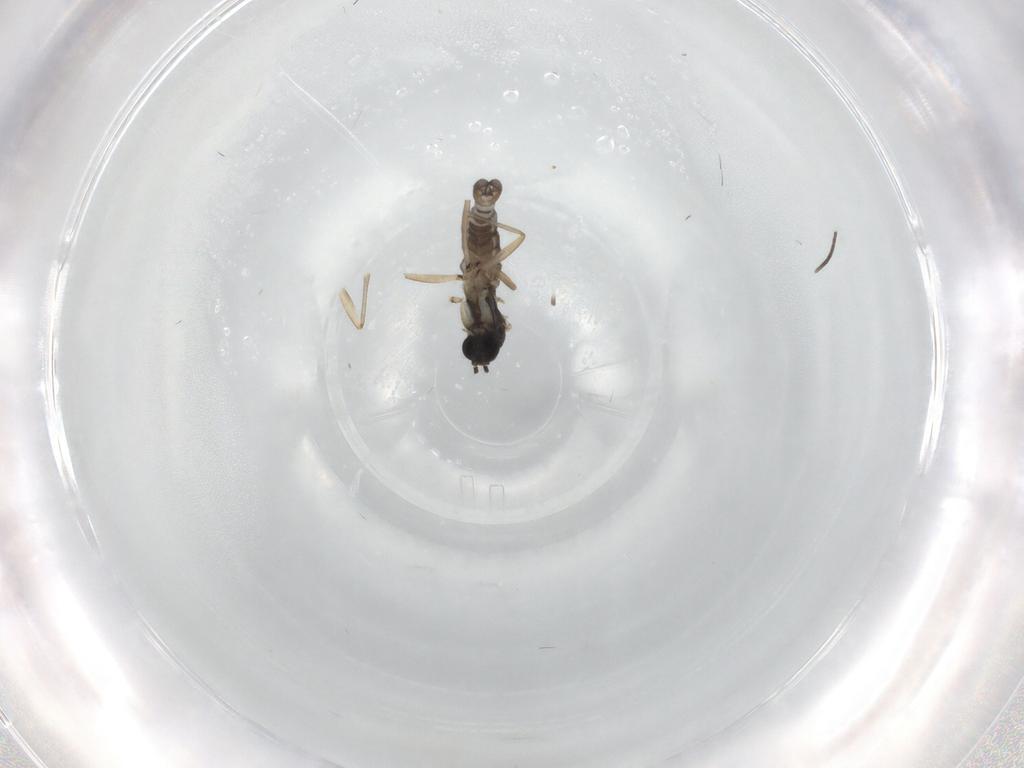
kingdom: Animalia
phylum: Arthropoda
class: Insecta
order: Diptera
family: Sciaridae
